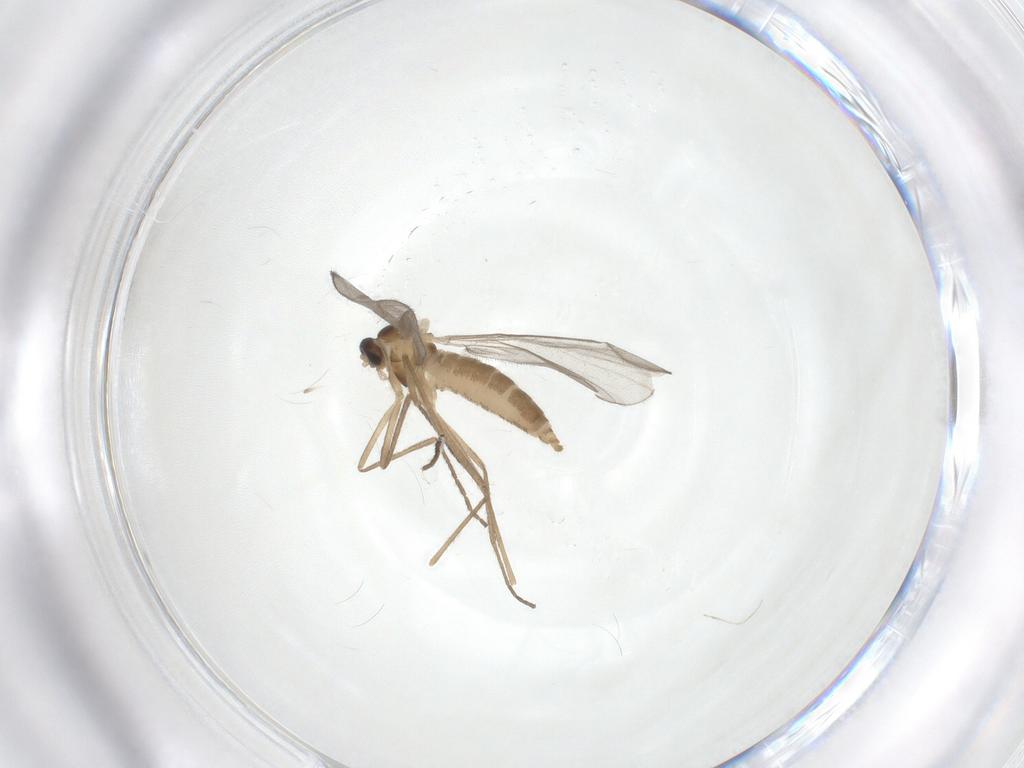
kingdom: Animalia
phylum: Arthropoda
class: Insecta
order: Diptera
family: Cecidomyiidae
